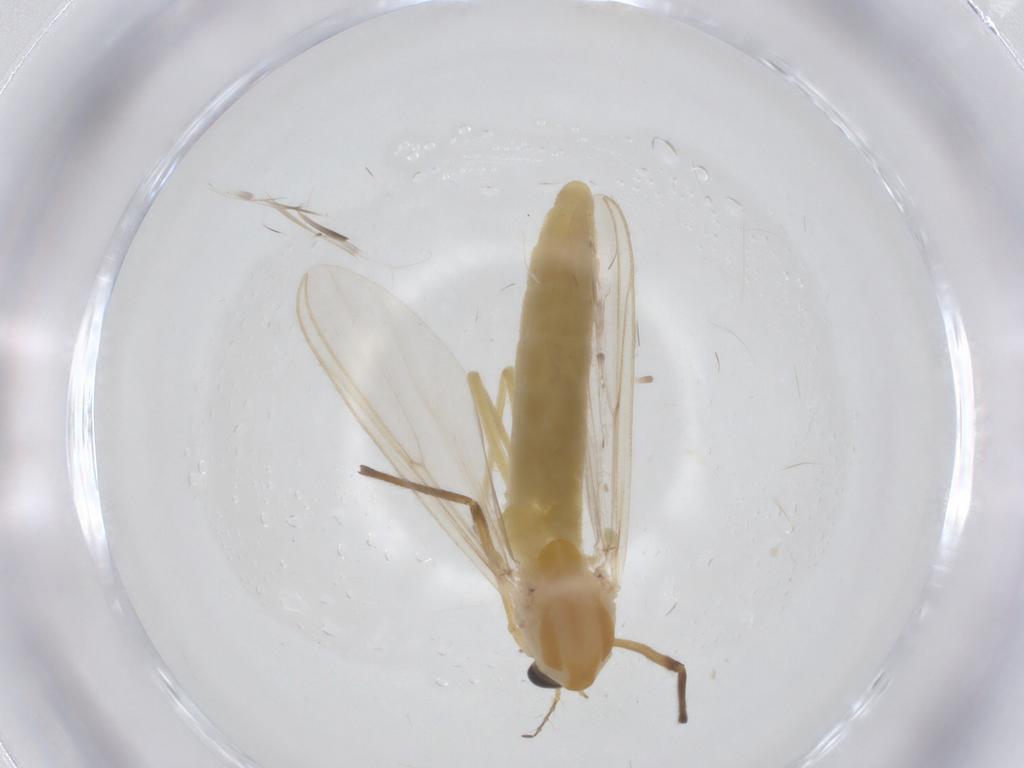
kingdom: Animalia
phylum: Arthropoda
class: Insecta
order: Diptera
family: Chironomidae
